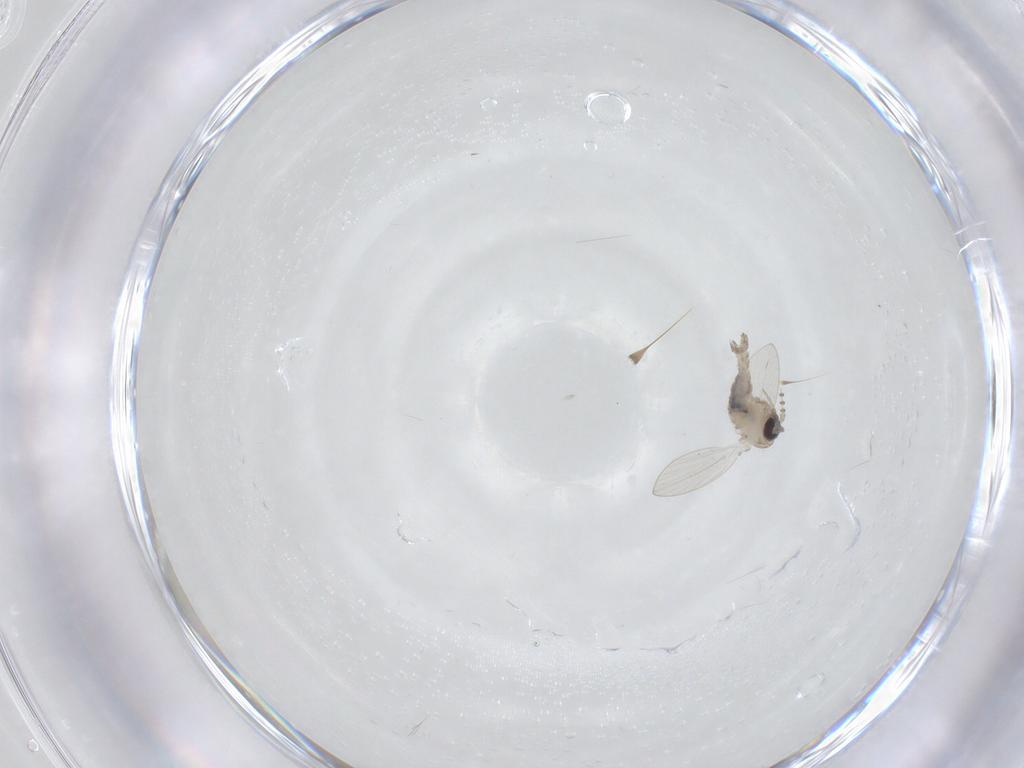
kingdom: Animalia
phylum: Arthropoda
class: Insecta
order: Diptera
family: Psychodidae
